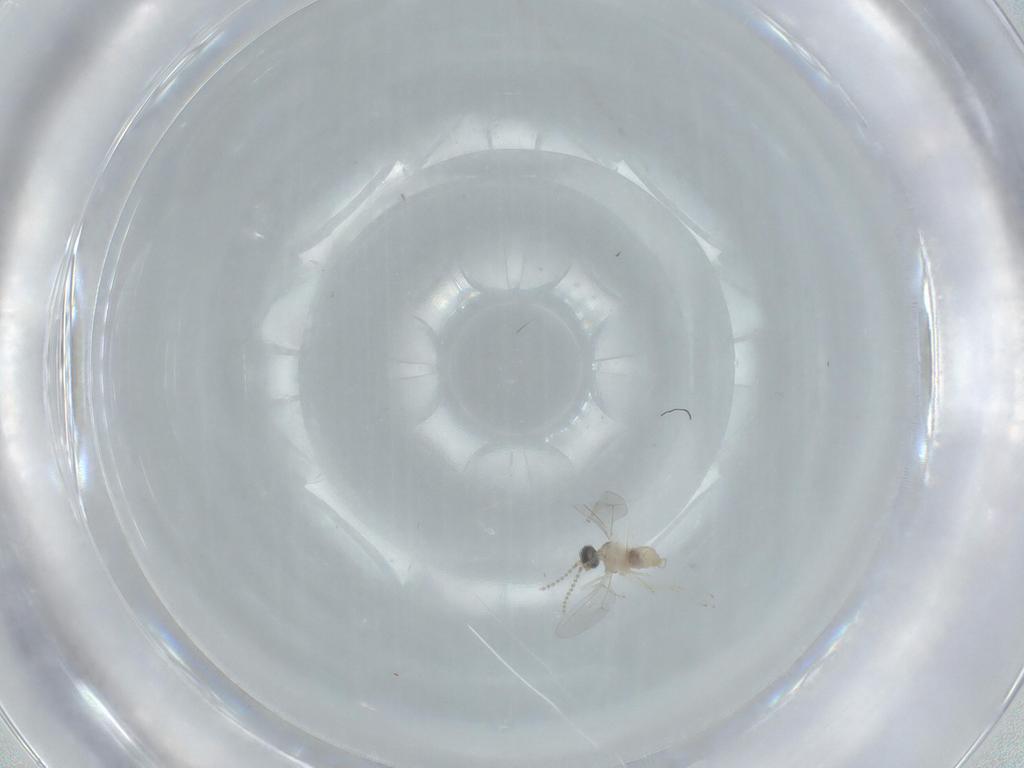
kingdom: Animalia
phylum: Arthropoda
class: Insecta
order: Diptera
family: Cecidomyiidae
